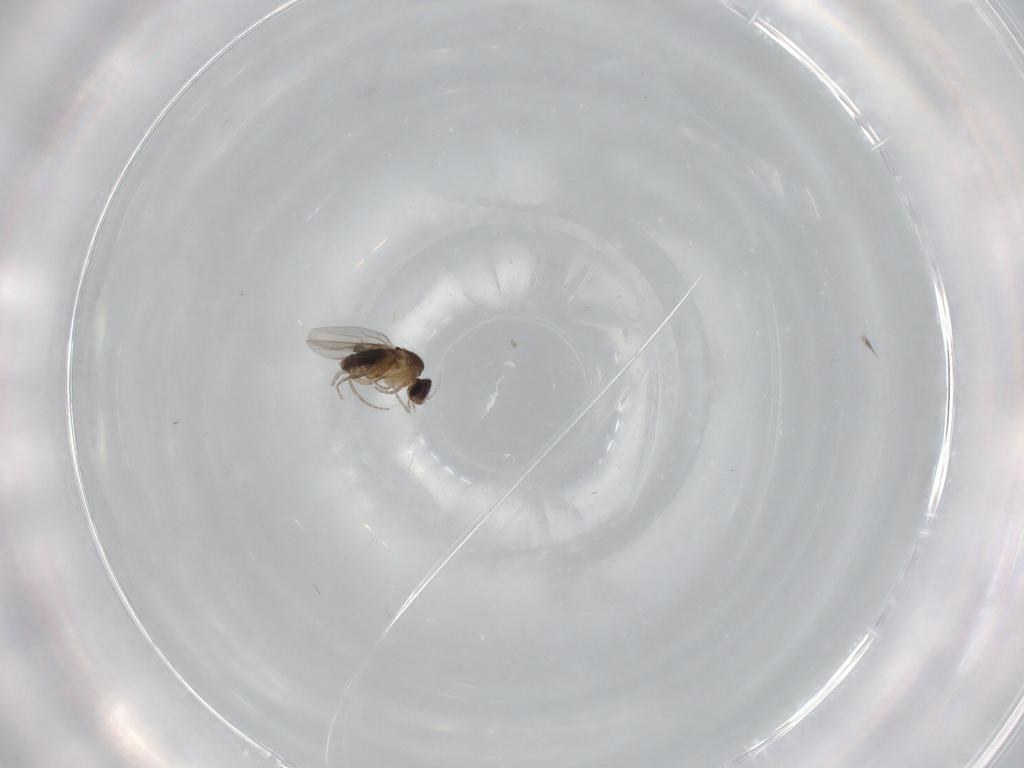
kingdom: Animalia
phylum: Arthropoda
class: Insecta
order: Diptera
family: Phoridae
